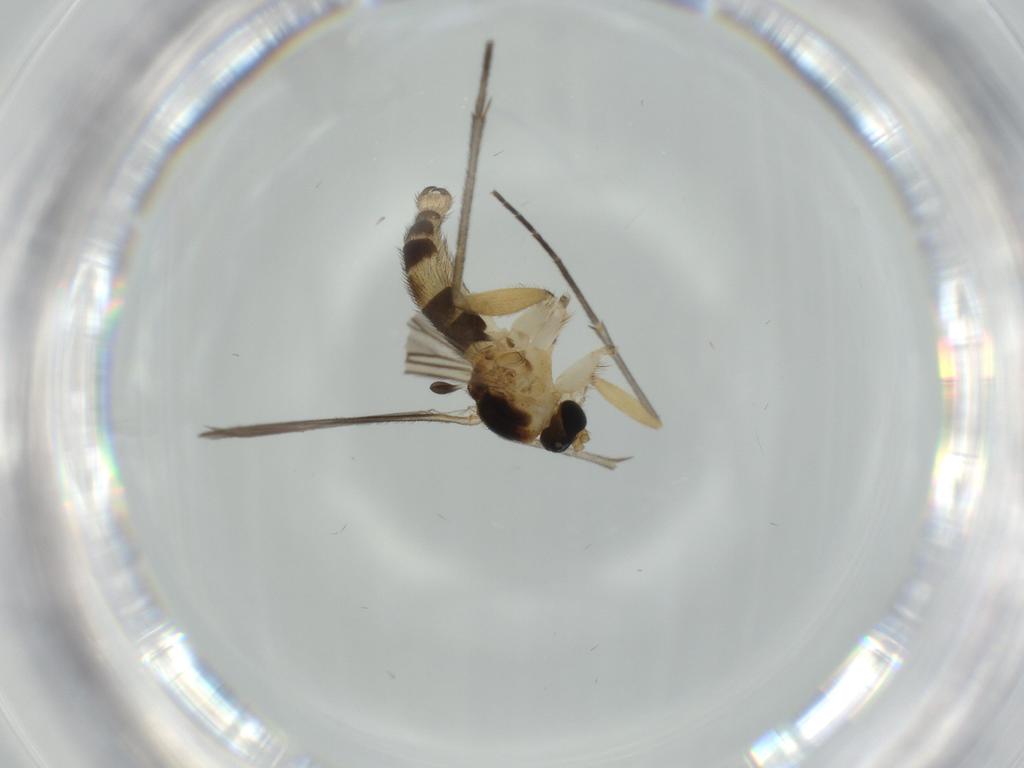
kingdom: Animalia
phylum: Arthropoda
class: Insecta
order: Diptera
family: Sciaridae
